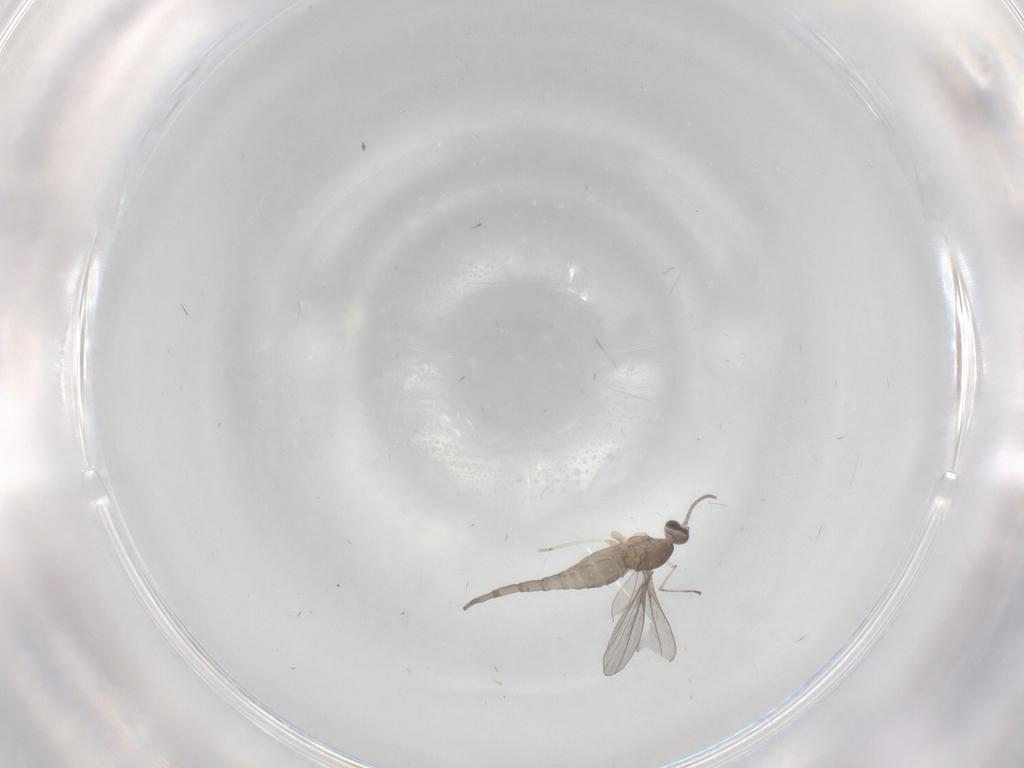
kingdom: Animalia
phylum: Arthropoda
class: Insecta
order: Diptera
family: Cecidomyiidae
